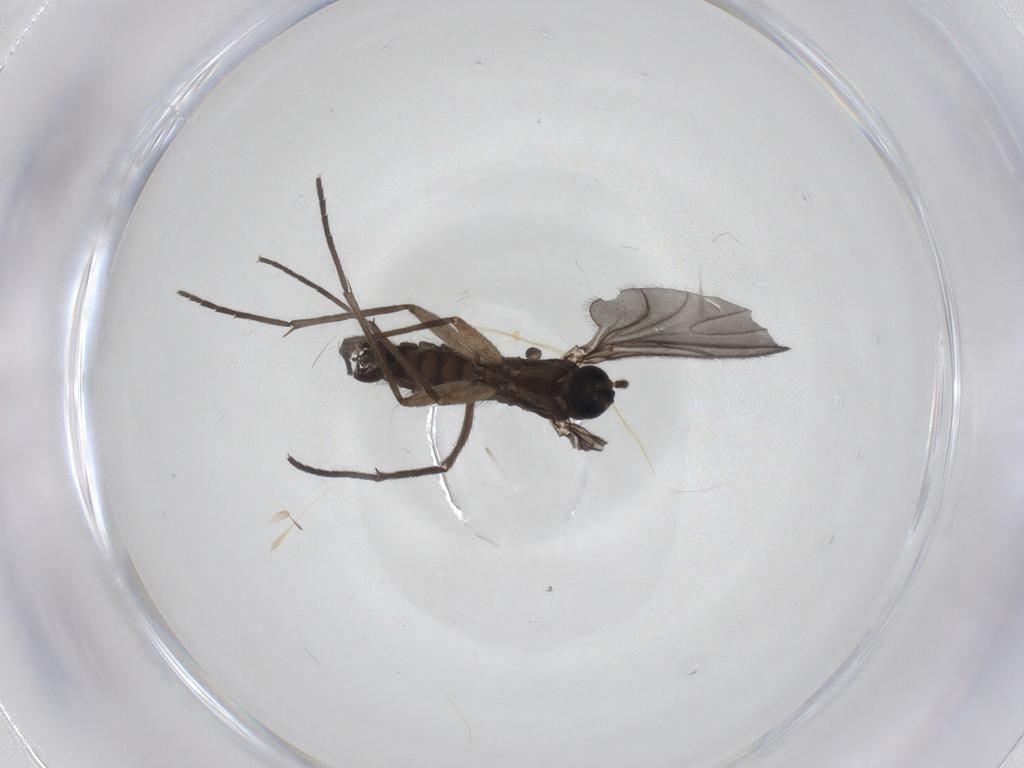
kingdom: Animalia
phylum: Arthropoda
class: Insecta
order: Diptera
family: Sciaridae
